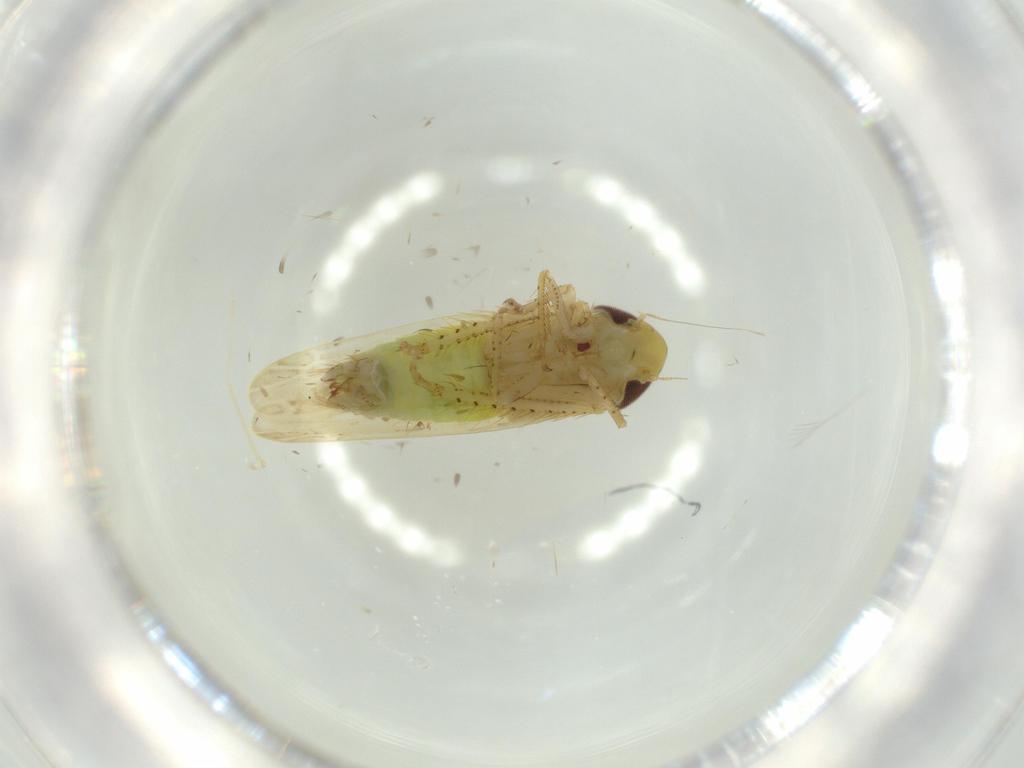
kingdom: Animalia
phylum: Arthropoda
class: Insecta
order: Hemiptera
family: Cicadellidae
